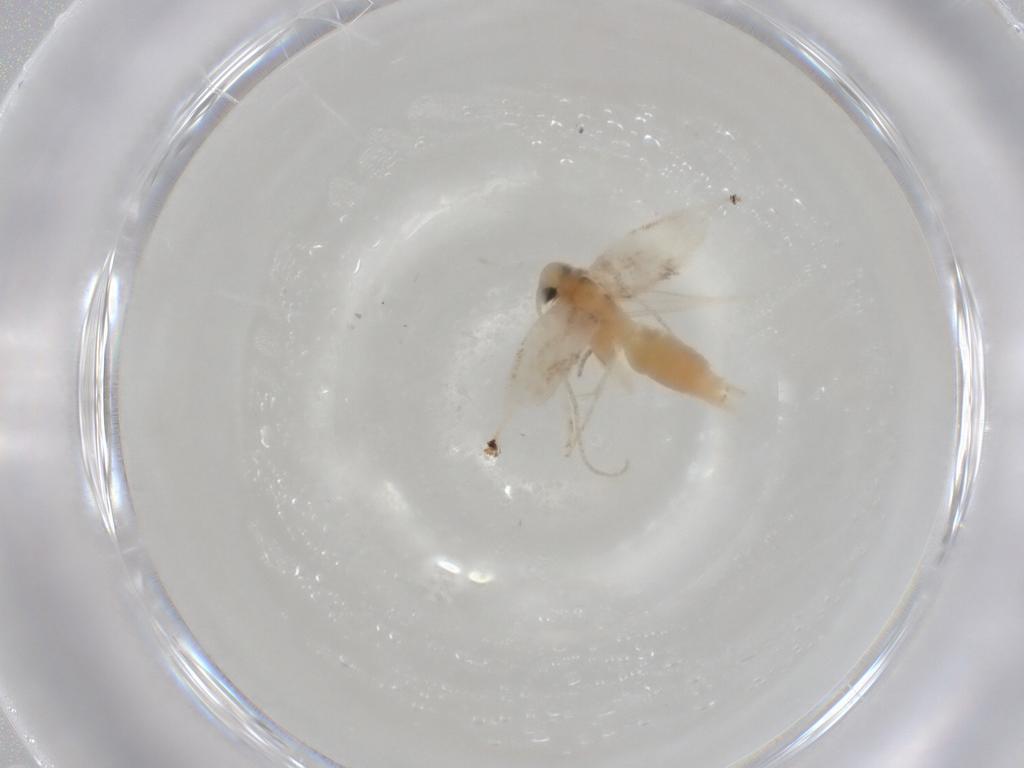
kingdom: Animalia
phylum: Arthropoda
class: Insecta
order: Lepidoptera
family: Lyonetiidae
